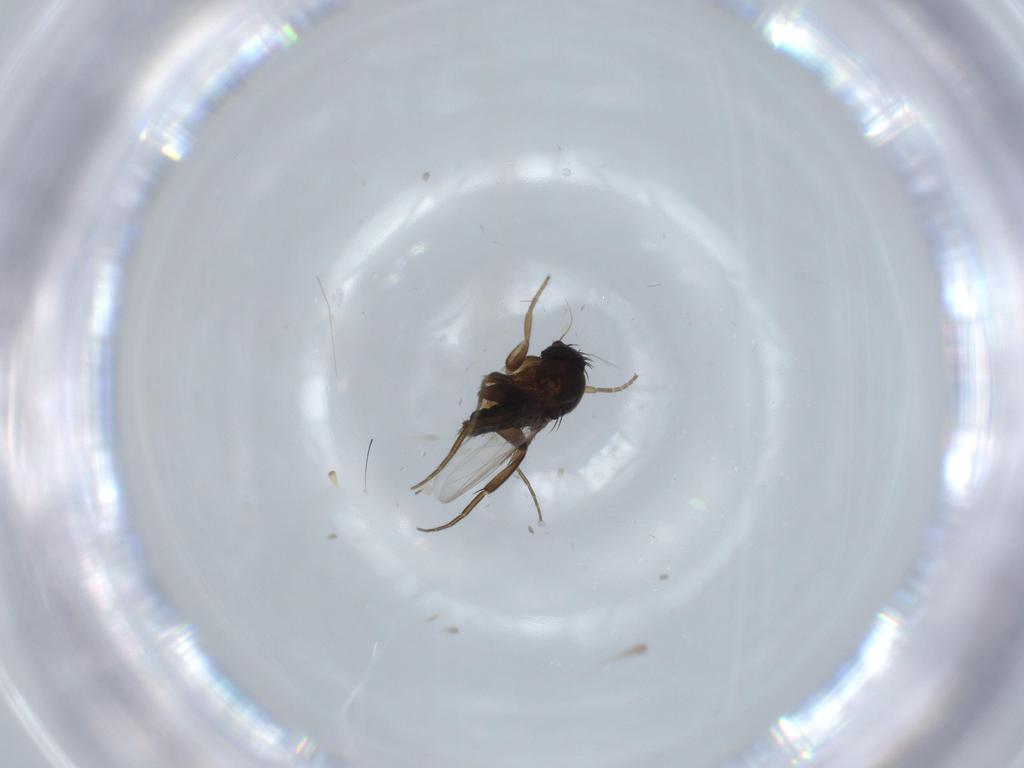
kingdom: Animalia
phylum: Arthropoda
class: Insecta
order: Diptera
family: Phoridae
